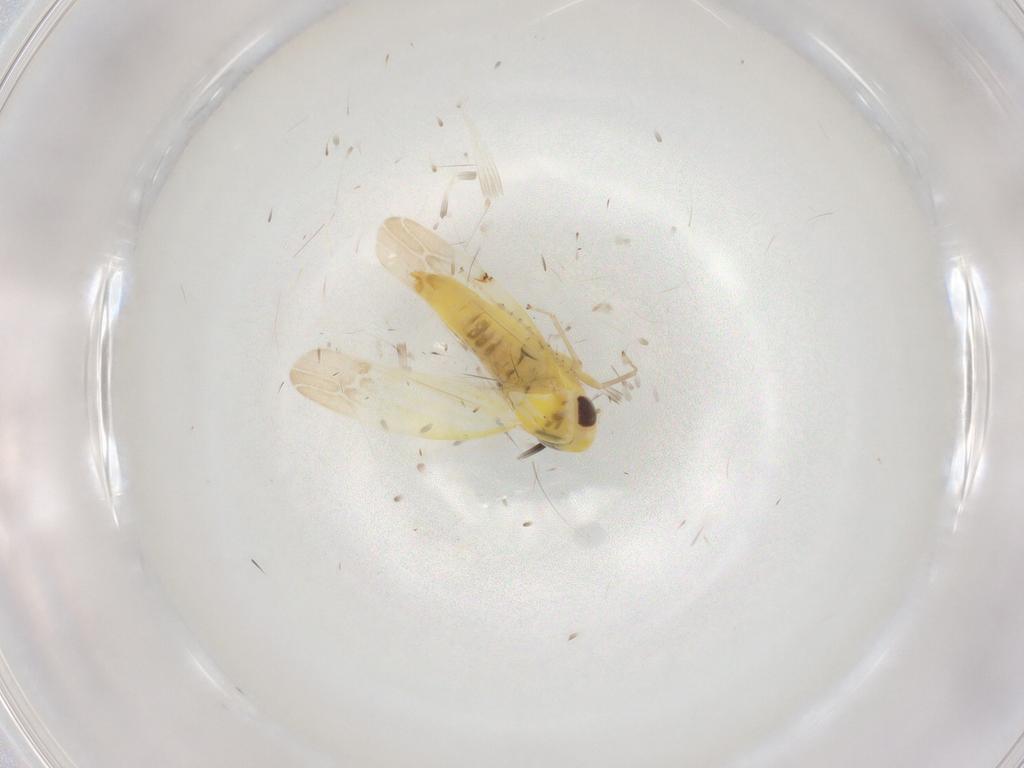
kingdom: Animalia
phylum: Arthropoda
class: Insecta
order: Hemiptera
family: Cicadellidae
